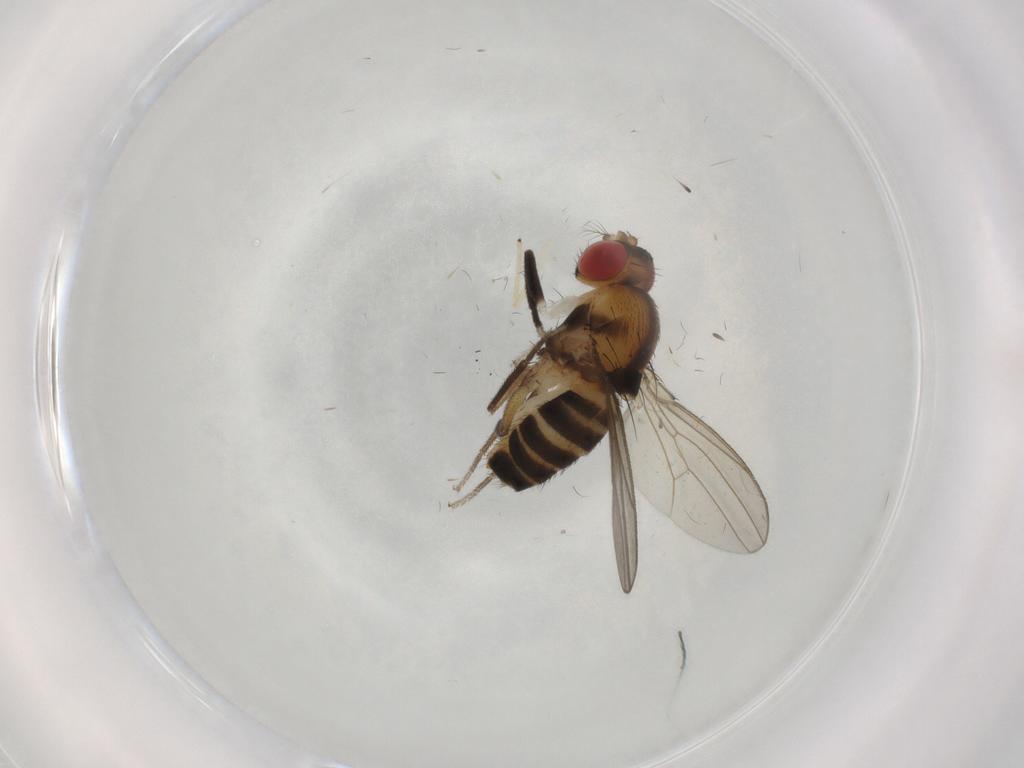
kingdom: Animalia
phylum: Arthropoda
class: Insecta
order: Diptera
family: Drosophilidae
